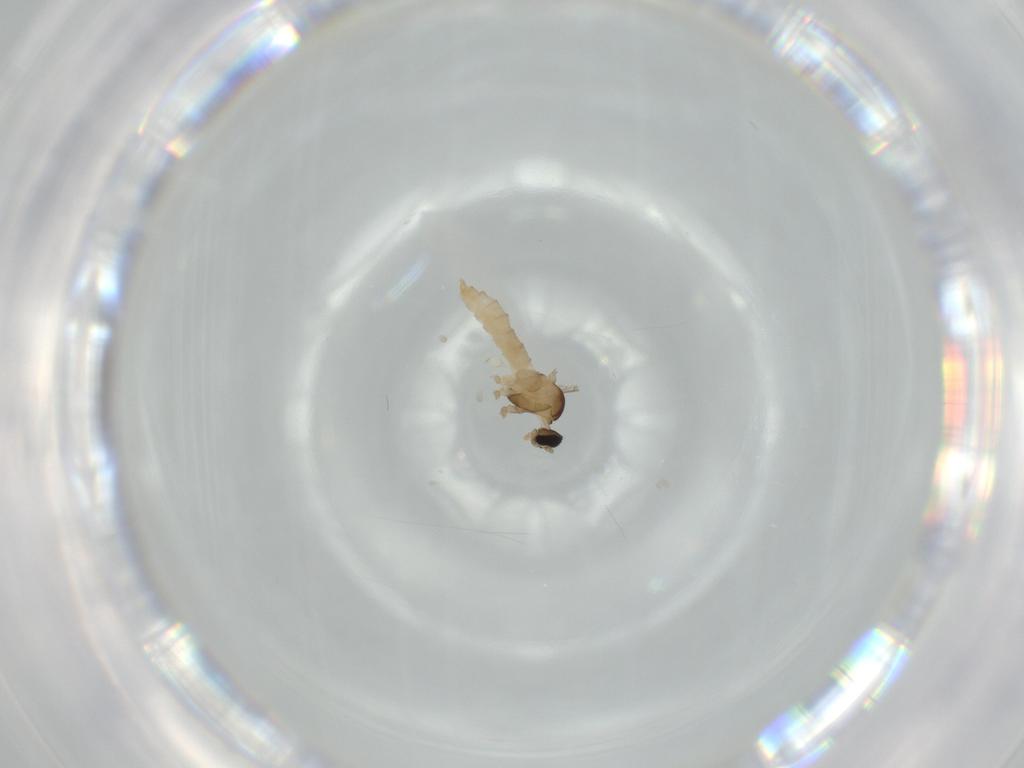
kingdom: Animalia
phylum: Arthropoda
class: Insecta
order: Diptera
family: Cecidomyiidae
